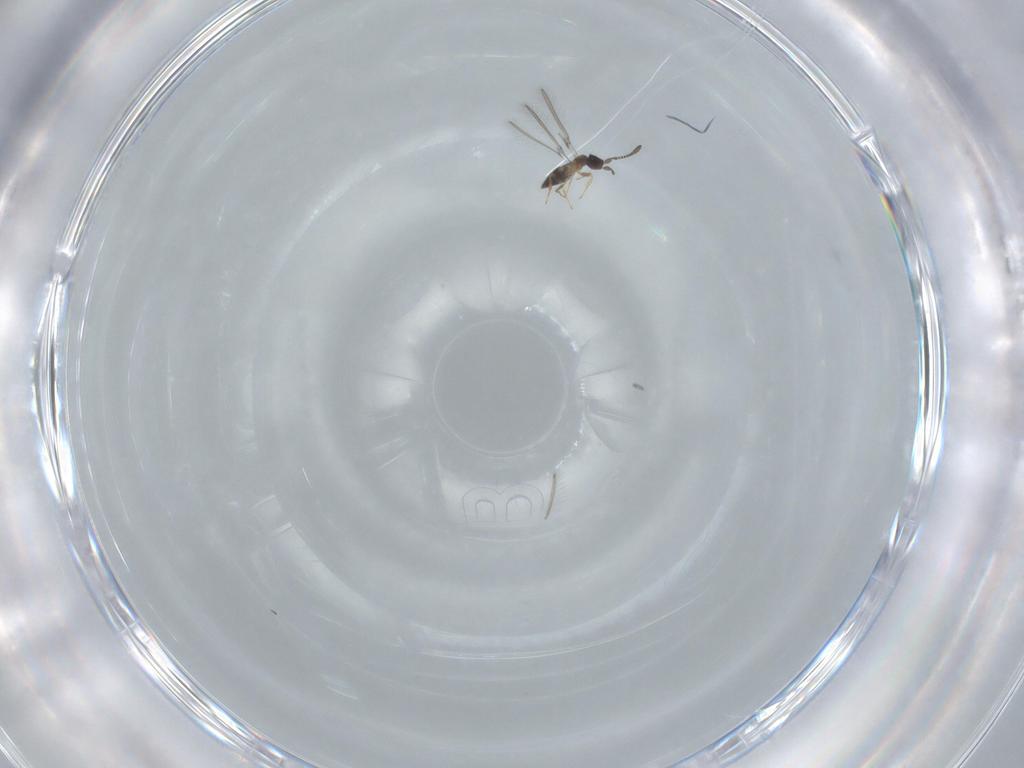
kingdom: Animalia
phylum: Arthropoda
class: Insecta
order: Hymenoptera
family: Mymaridae
